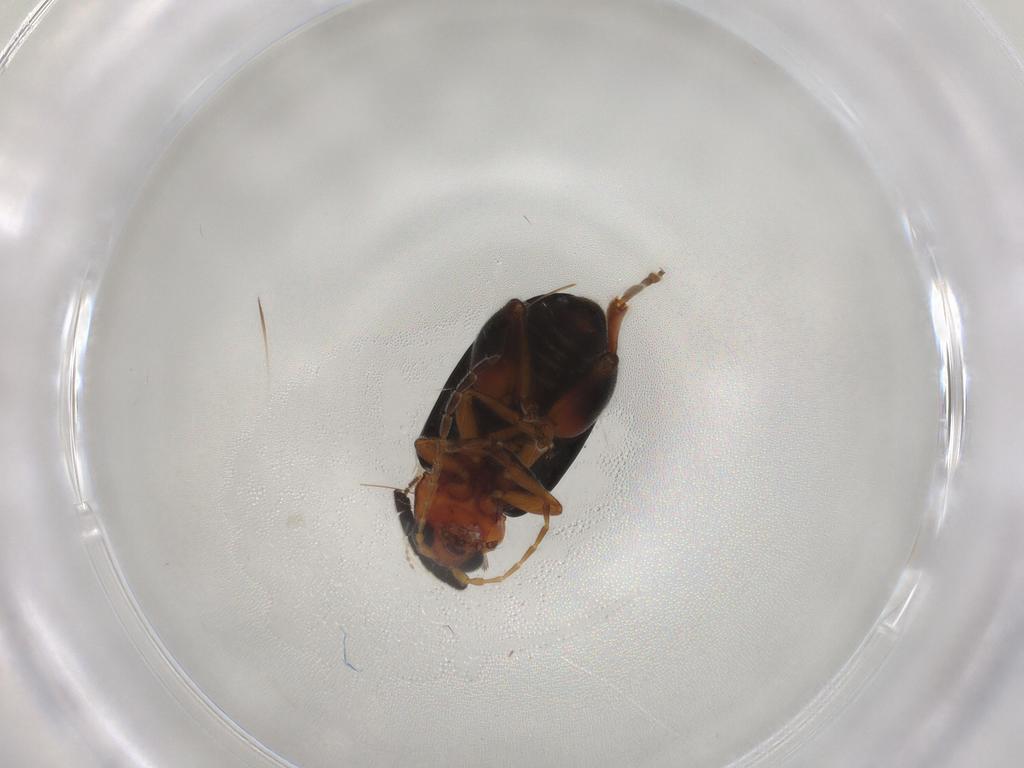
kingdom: Animalia
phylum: Arthropoda
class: Insecta
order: Coleoptera
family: Chrysomelidae
